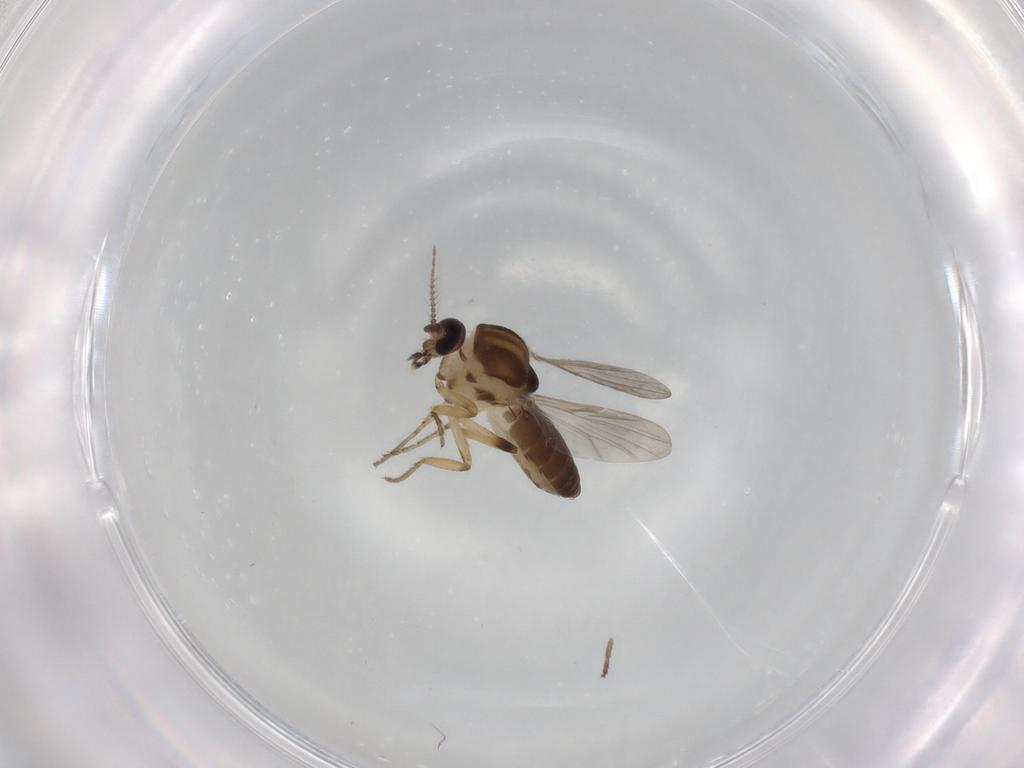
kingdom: Animalia
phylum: Arthropoda
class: Insecta
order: Diptera
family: Ceratopogonidae
